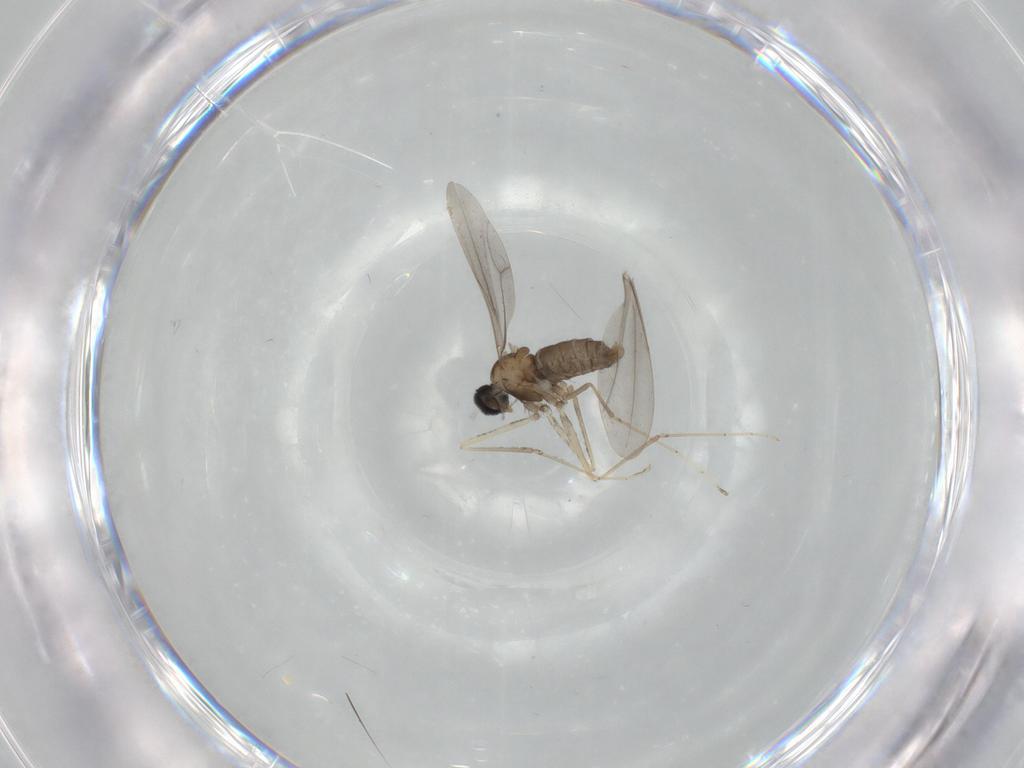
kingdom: Animalia
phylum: Arthropoda
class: Insecta
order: Diptera
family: Cecidomyiidae
